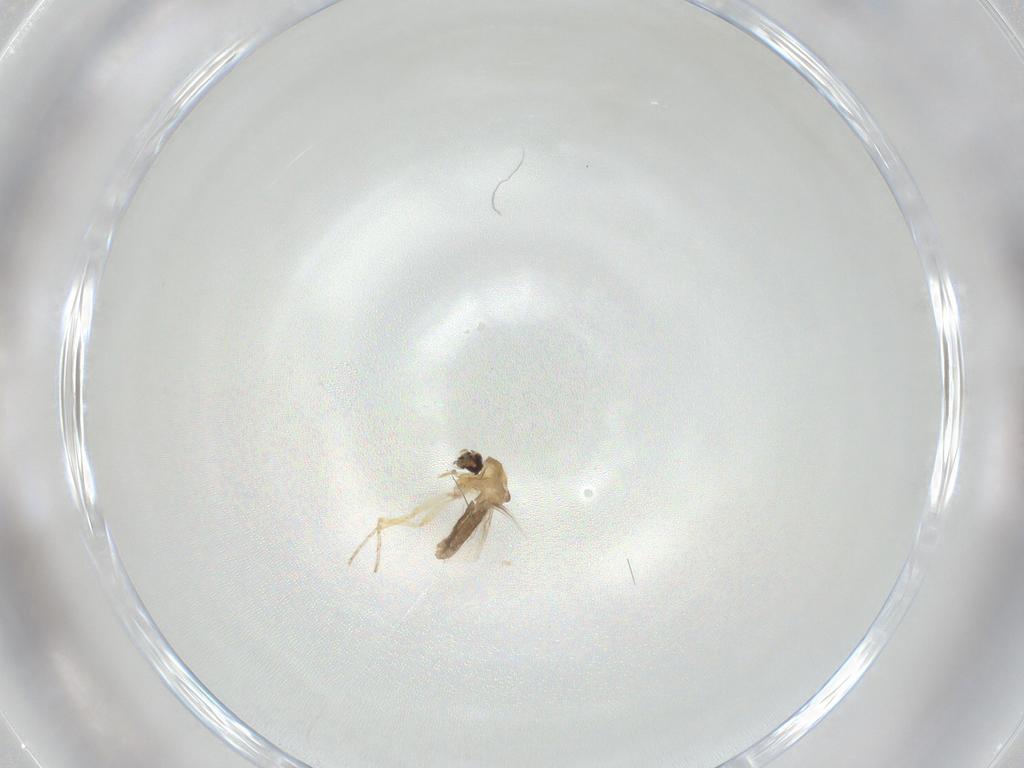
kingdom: Animalia
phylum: Arthropoda
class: Insecta
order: Diptera
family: Ceratopogonidae
